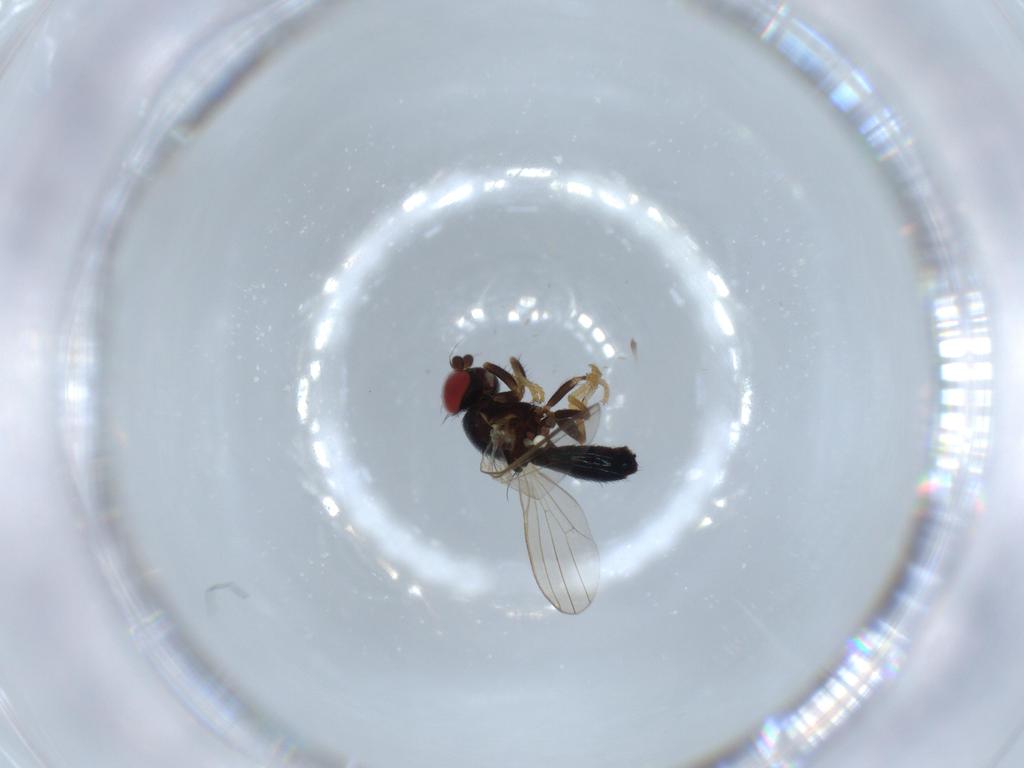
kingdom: Animalia
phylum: Arthropoda
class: Insecta
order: Diptera
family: Chamaemyiidae
